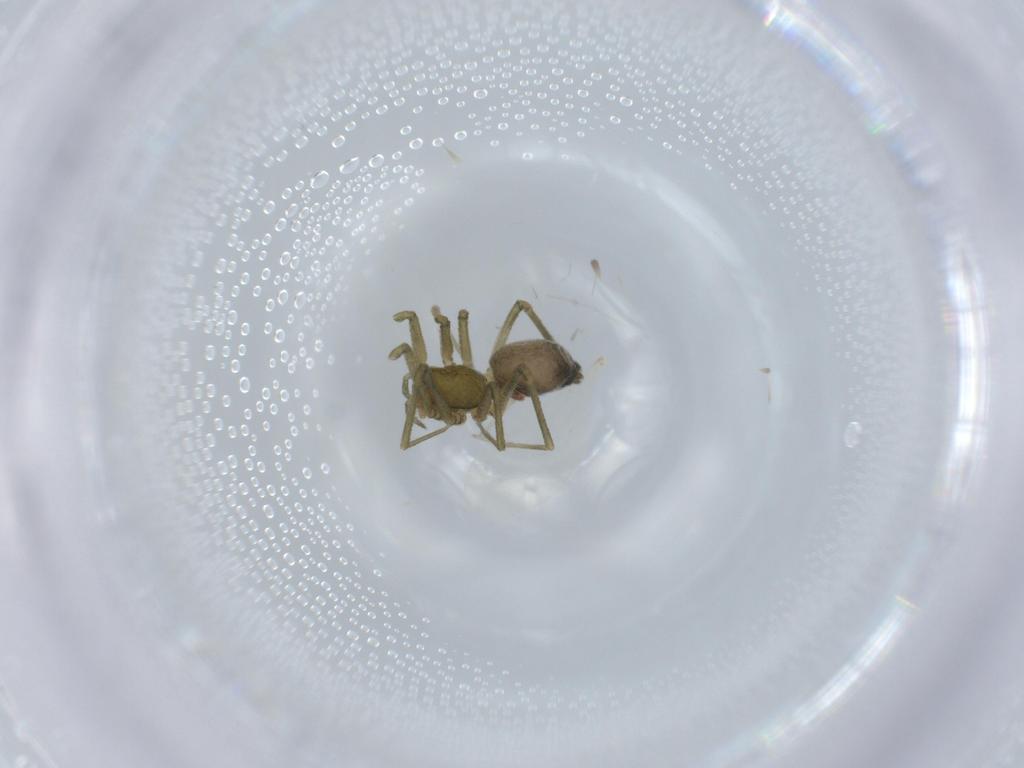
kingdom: Animalia
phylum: Arthropoda
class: Arachnida
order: Araneae
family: Linyphiidae
